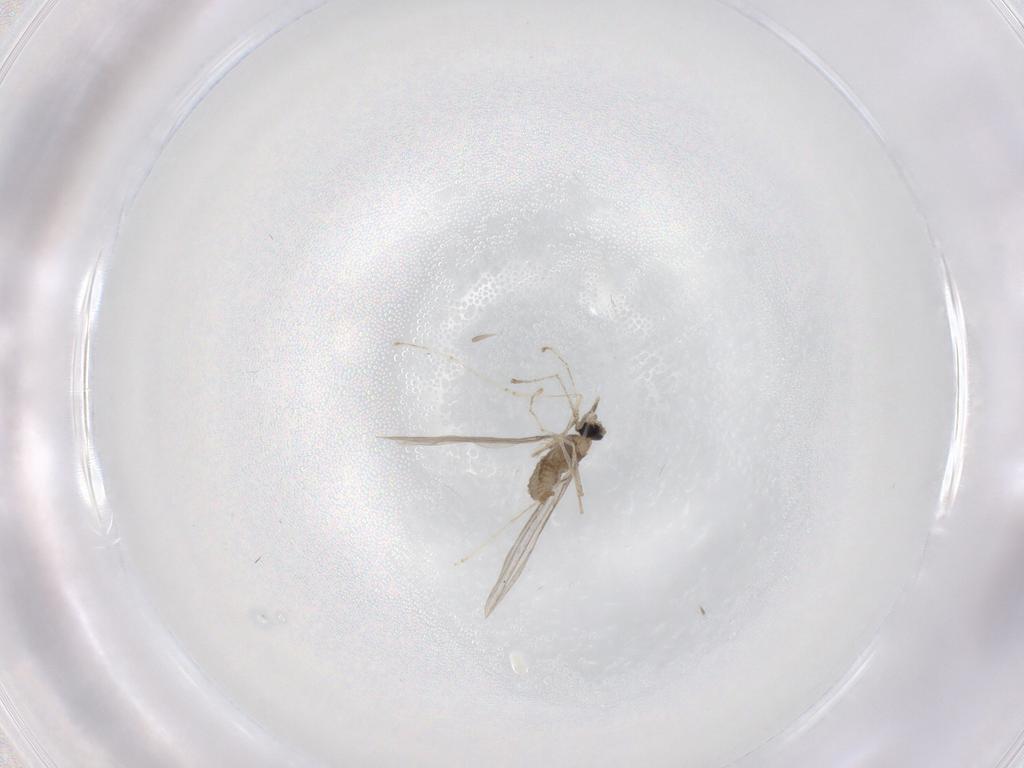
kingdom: Animalia
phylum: Arthropoda
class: Insecta
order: Diptera
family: Cecidomyiidae
